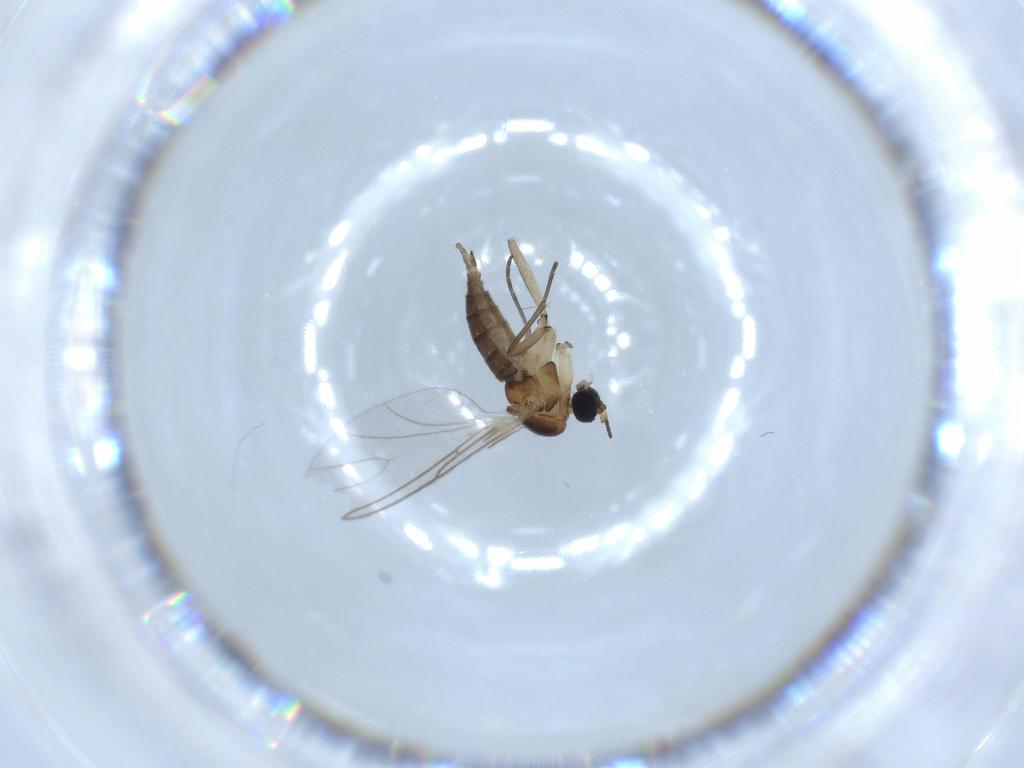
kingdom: Animalia
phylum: Arthropoda
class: Insecta
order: Diptera
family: Sciaridae
